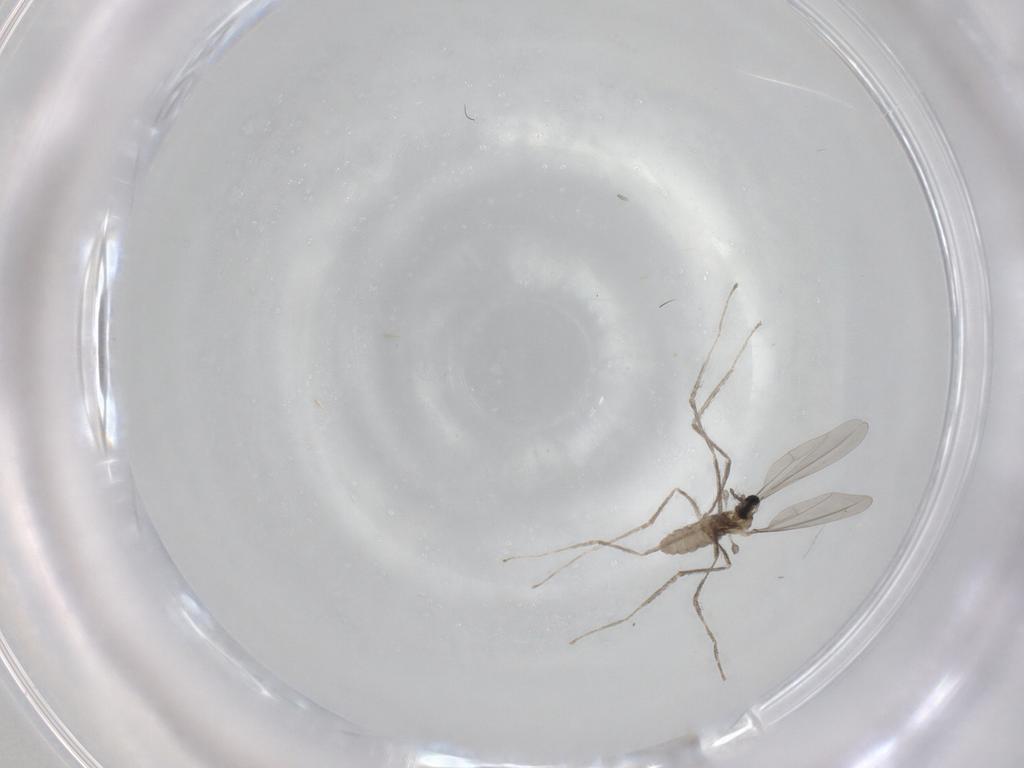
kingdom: Animalia
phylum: Arthropoda
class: Insecta
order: Diptera
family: Cecidomyiidae
